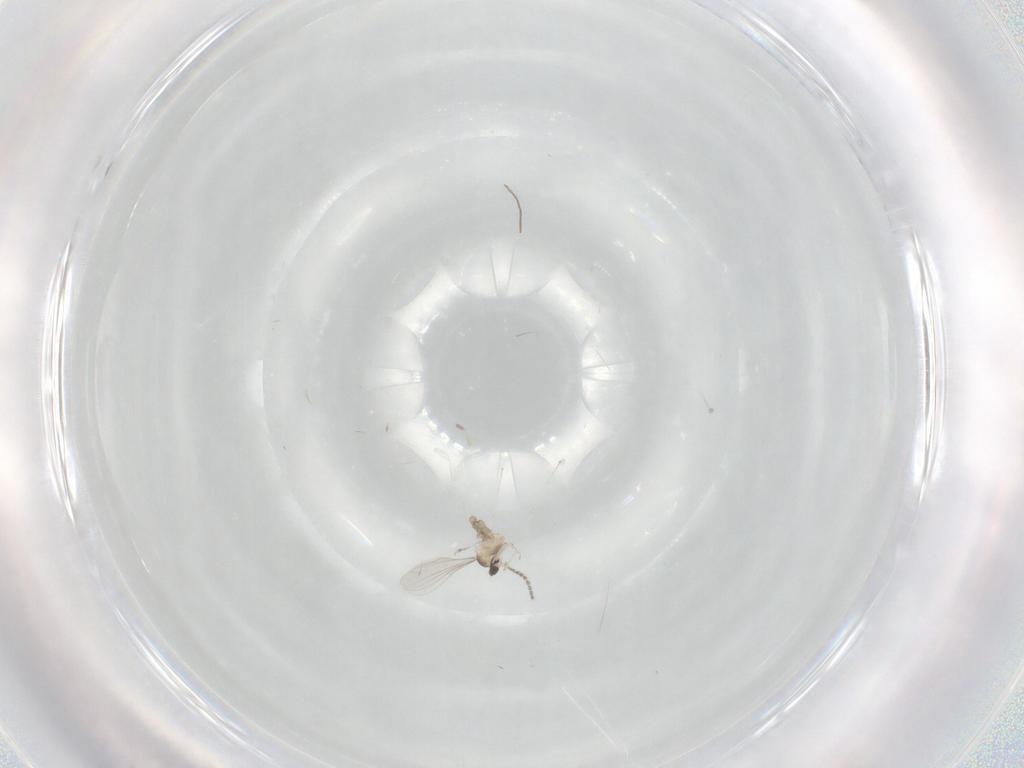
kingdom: Animalia
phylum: Arthropoda
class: Insecta
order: Diptera
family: Cecidomyiidae
